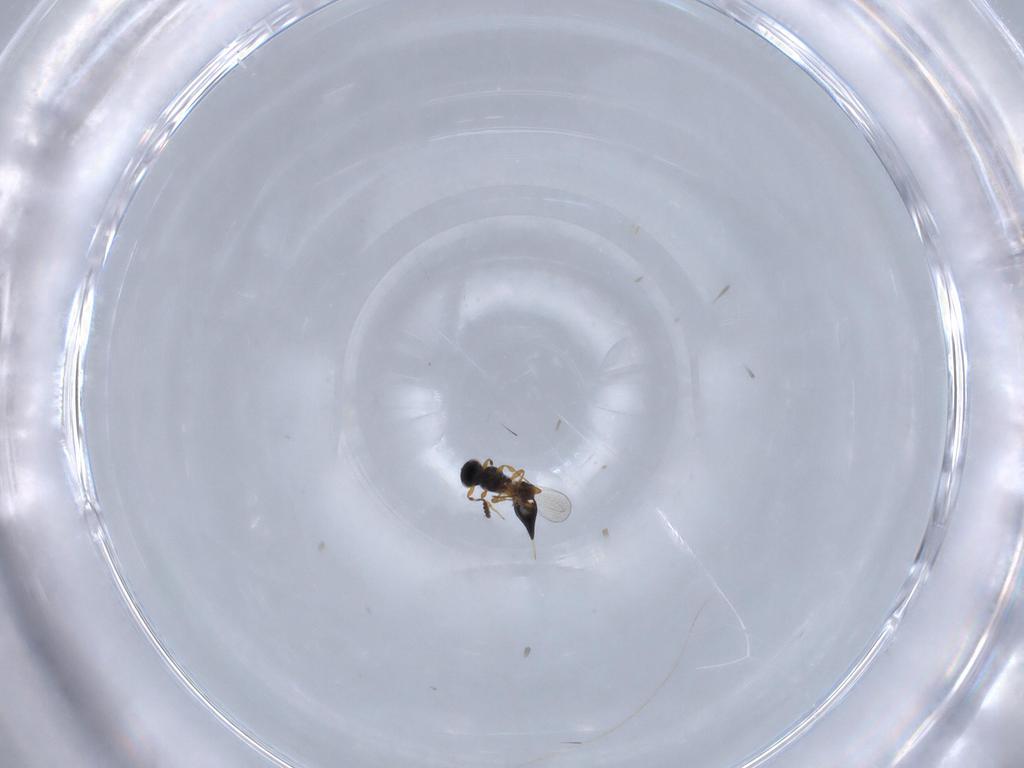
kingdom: Animalia
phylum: Arthropoda
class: Insecta
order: Hymenoptera
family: Platygastridae
